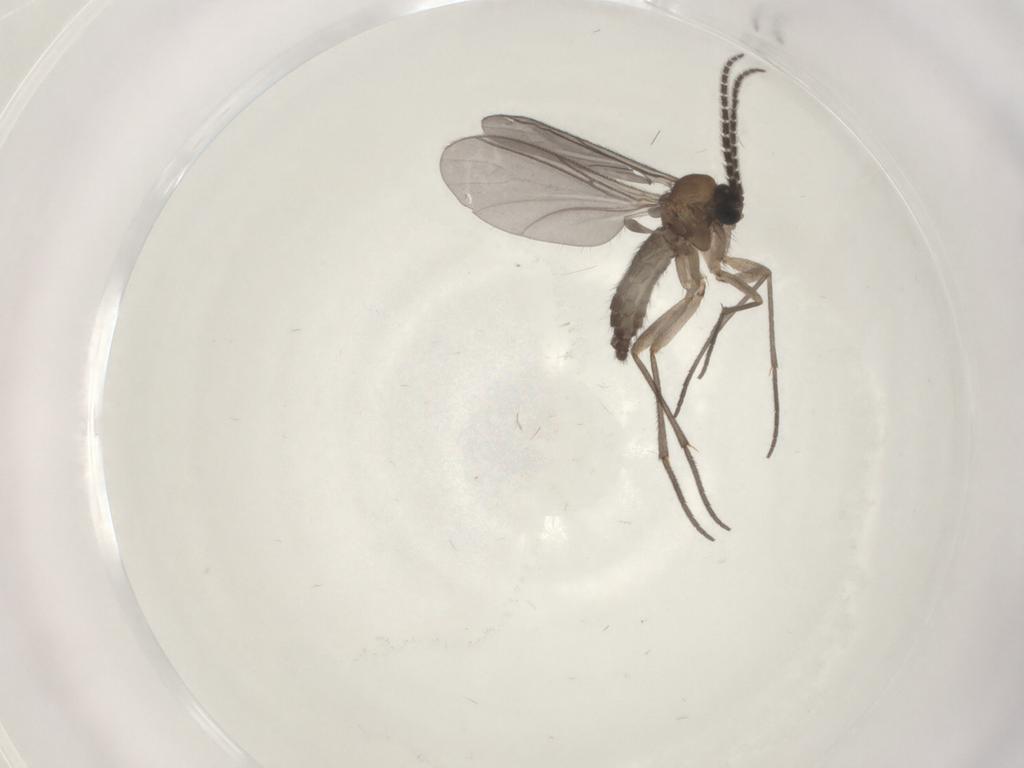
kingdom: Animalia
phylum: Arthropoda
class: Insecta
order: Diptera
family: Sciaridae
